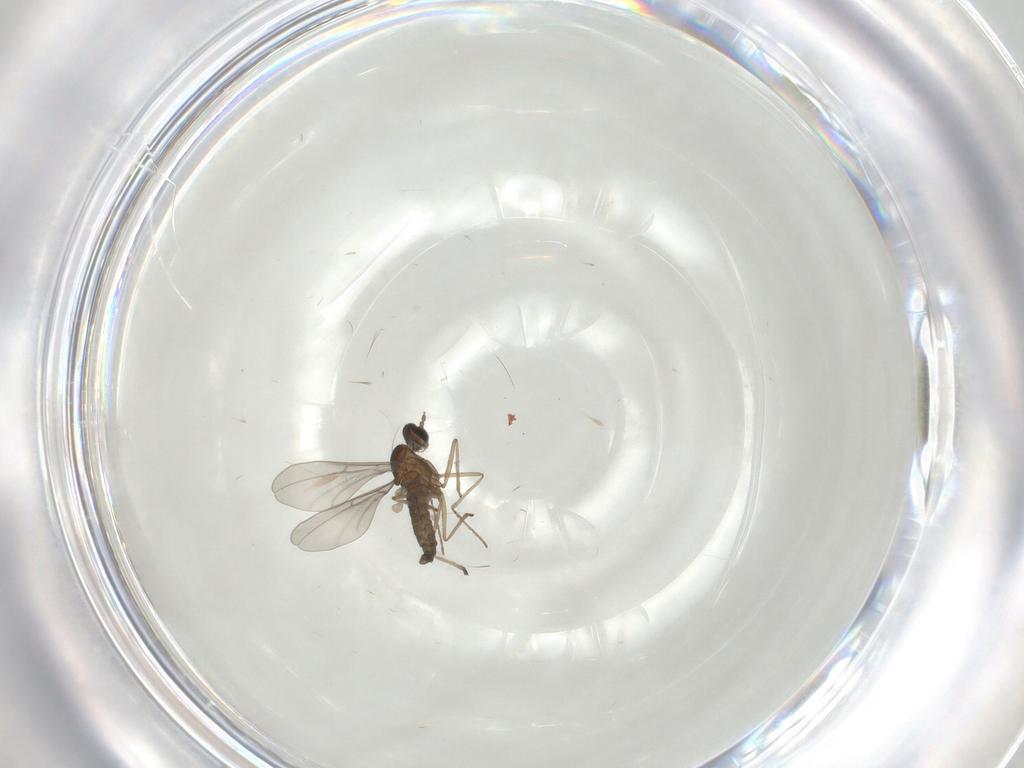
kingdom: Animalia
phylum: Arthropoda
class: Insecta
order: Diptera
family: Cecidomyiidae
